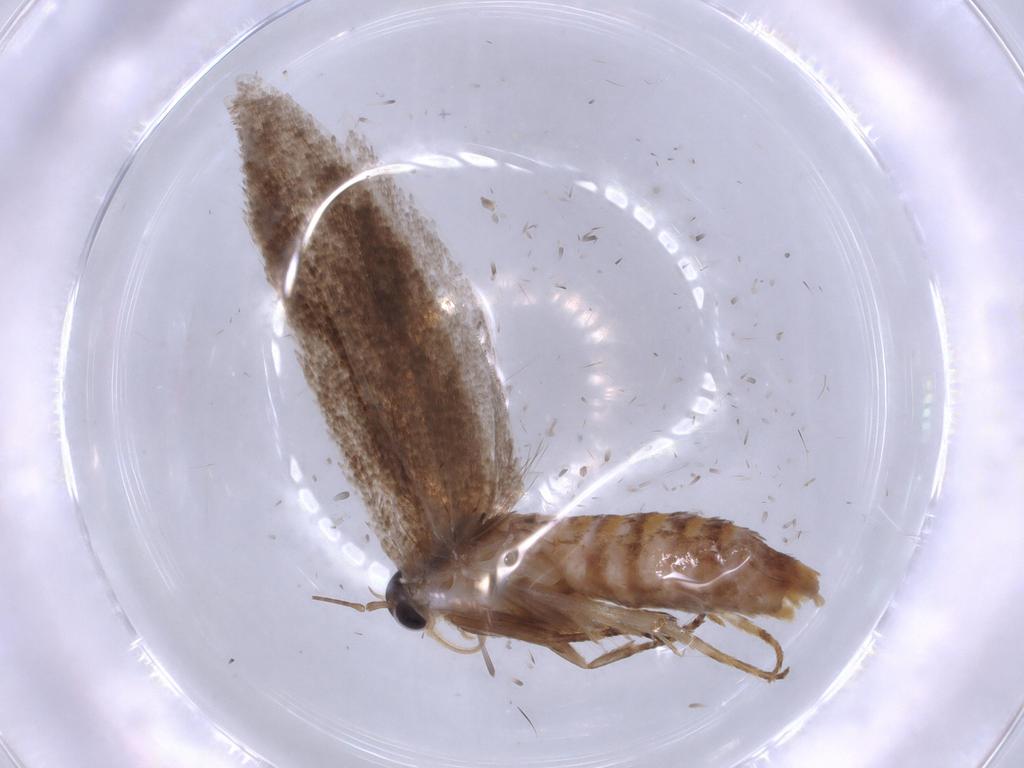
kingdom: Animalia
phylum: Arthropoda
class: Insecta
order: Lepidoptera
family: Oecophoridae
